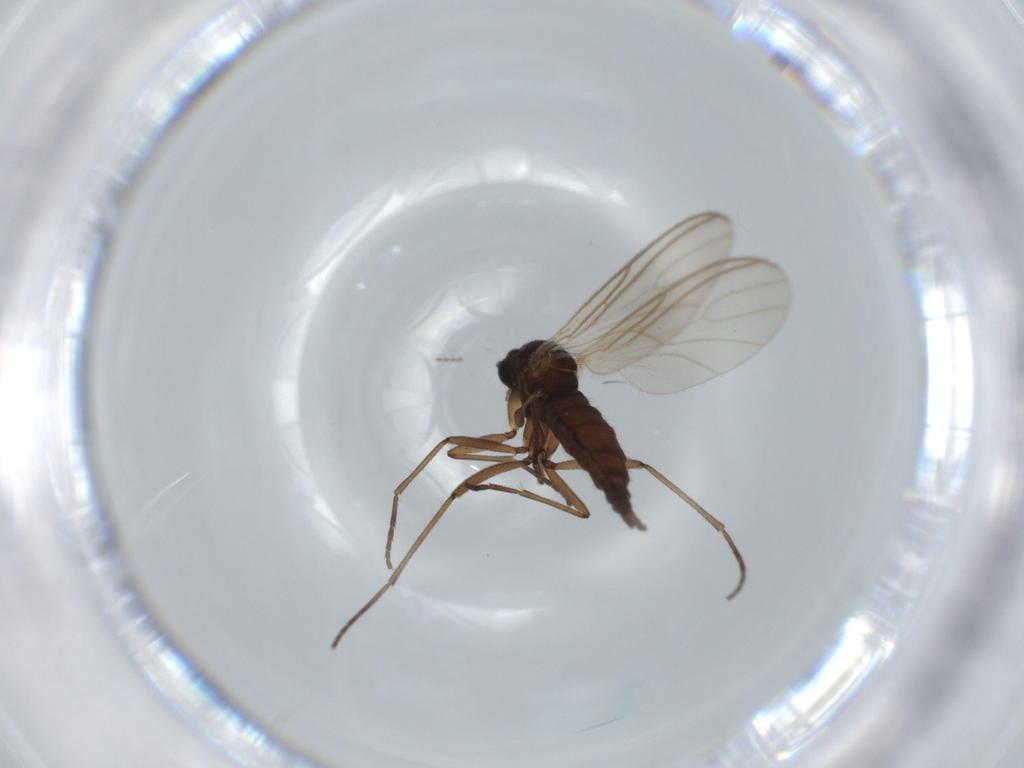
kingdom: Animalia
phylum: Arthropoda
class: Insecta
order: Diptera
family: Sciaridae
